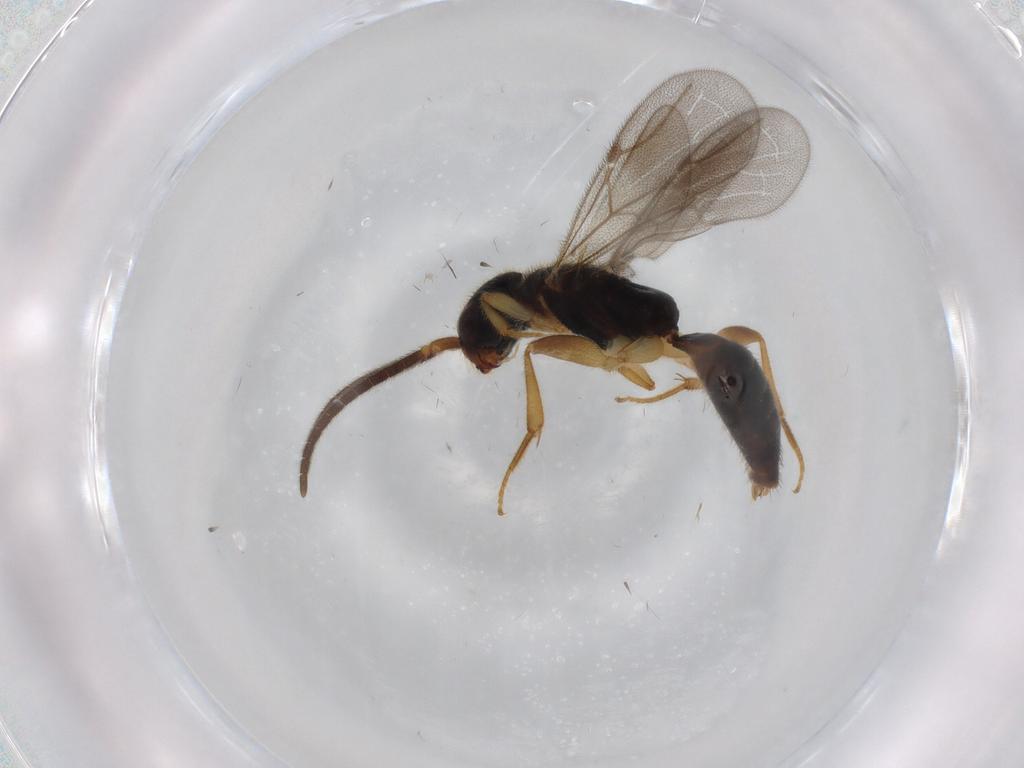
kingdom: Animalia
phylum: Arthropoda
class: Insecta
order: Hymenoptera
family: Bethylidae
